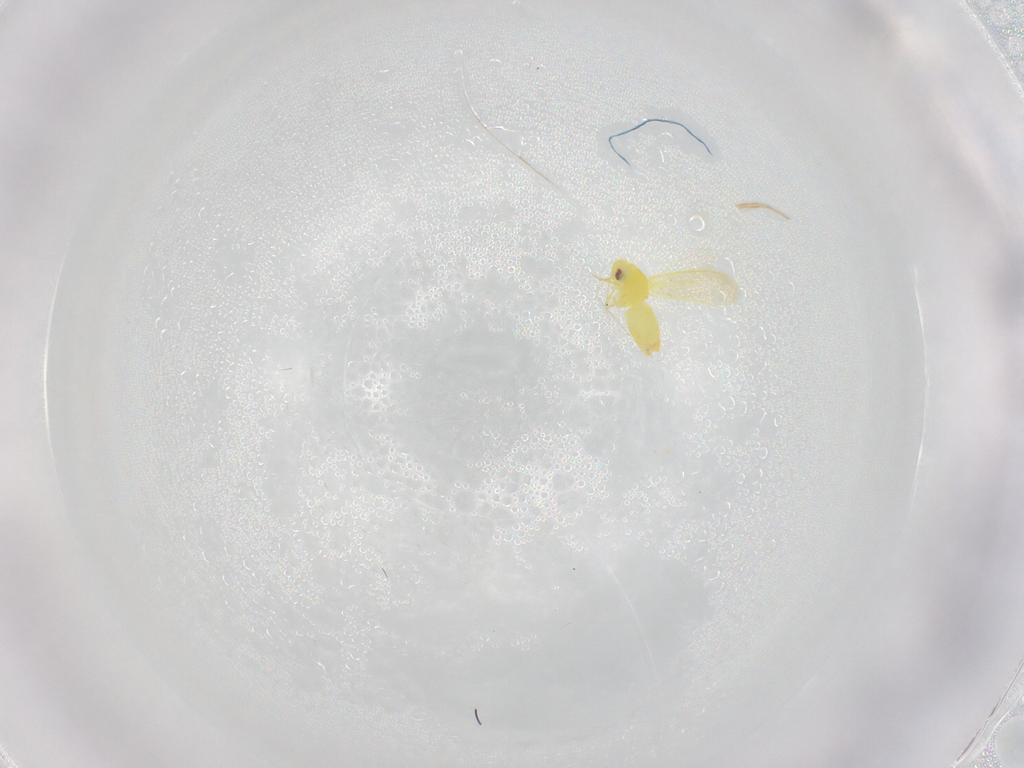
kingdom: Animalia
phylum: Arthropoda
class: Insecta
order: Hemiptera
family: Aleyrodidae
